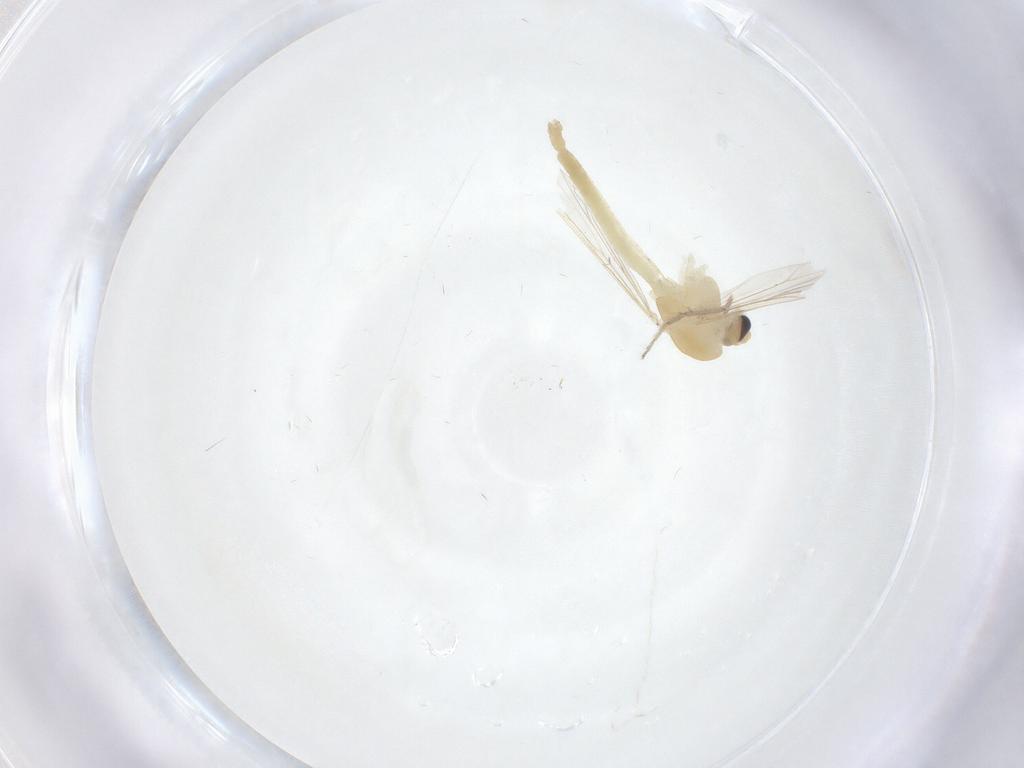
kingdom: Animalia
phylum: Arthropoda
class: Insecta
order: Diptera
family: Chironomidae
